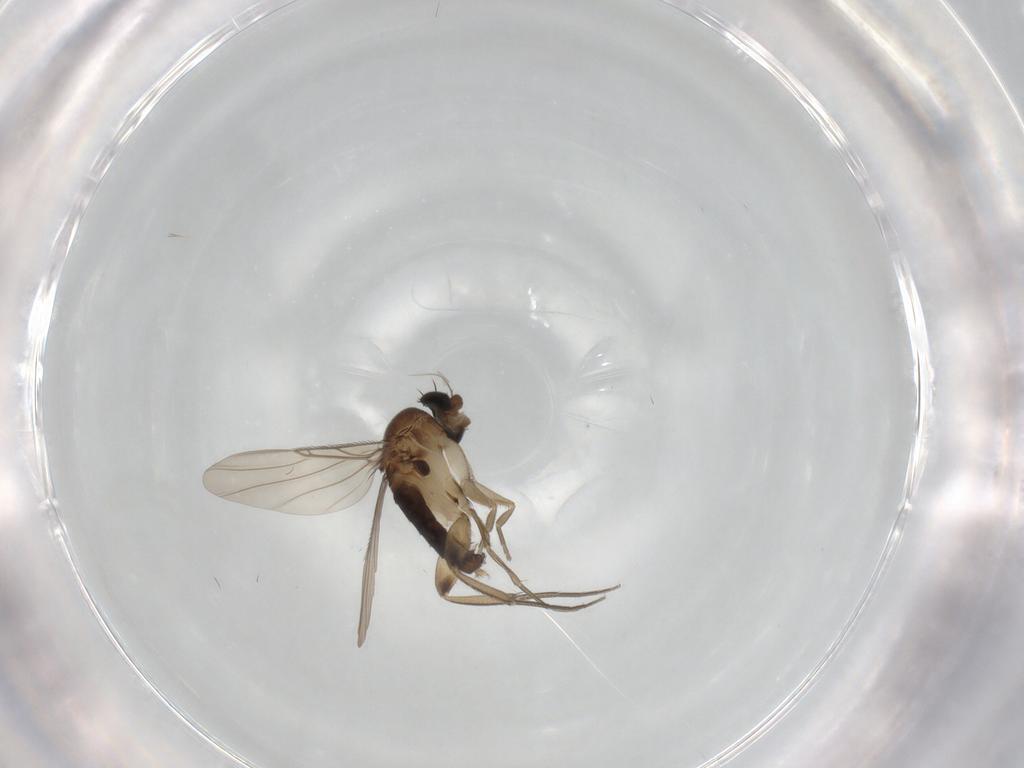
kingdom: Animalia
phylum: Arthropoda
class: Insecta
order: Diptera
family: Phoridae
